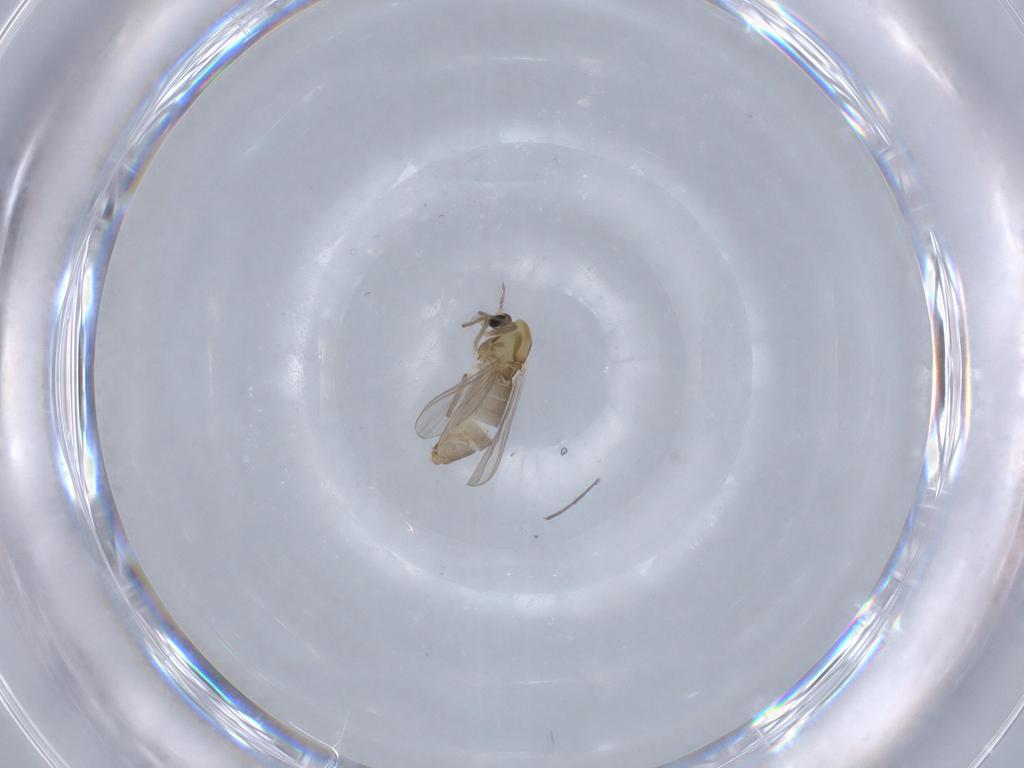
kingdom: Animalia
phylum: Arthropoda
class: Insecta
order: Diptera
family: Chironomidae
